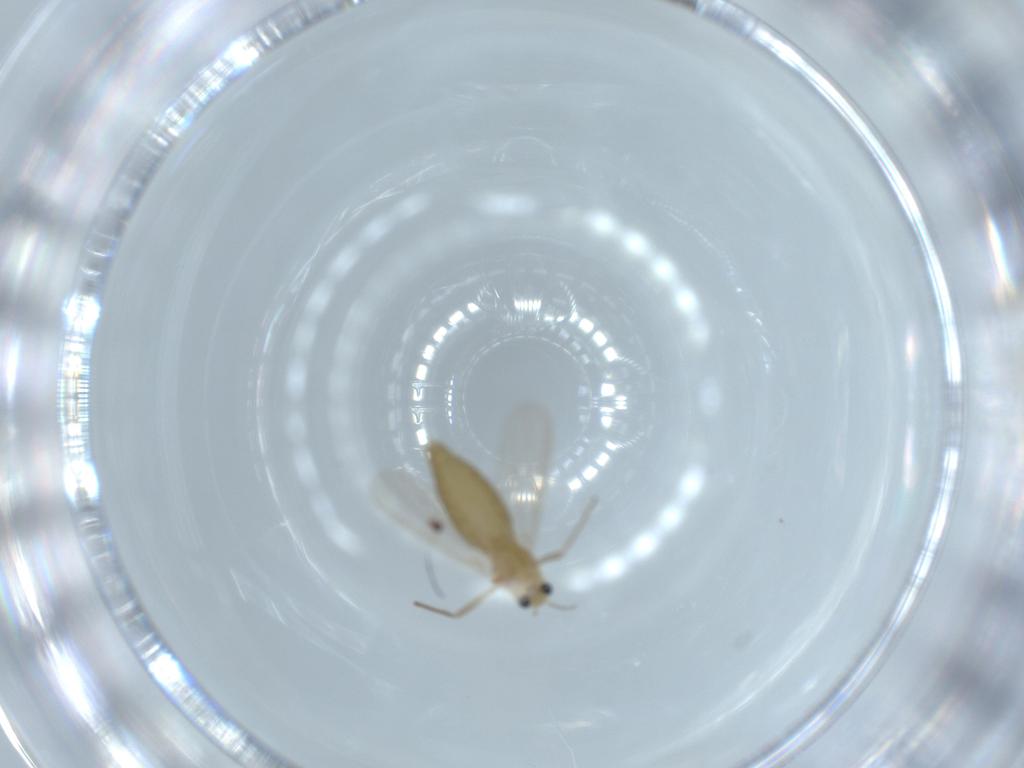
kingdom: Animalia
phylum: Arthropoda
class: Insecta
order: Diptera
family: Chironomidae
